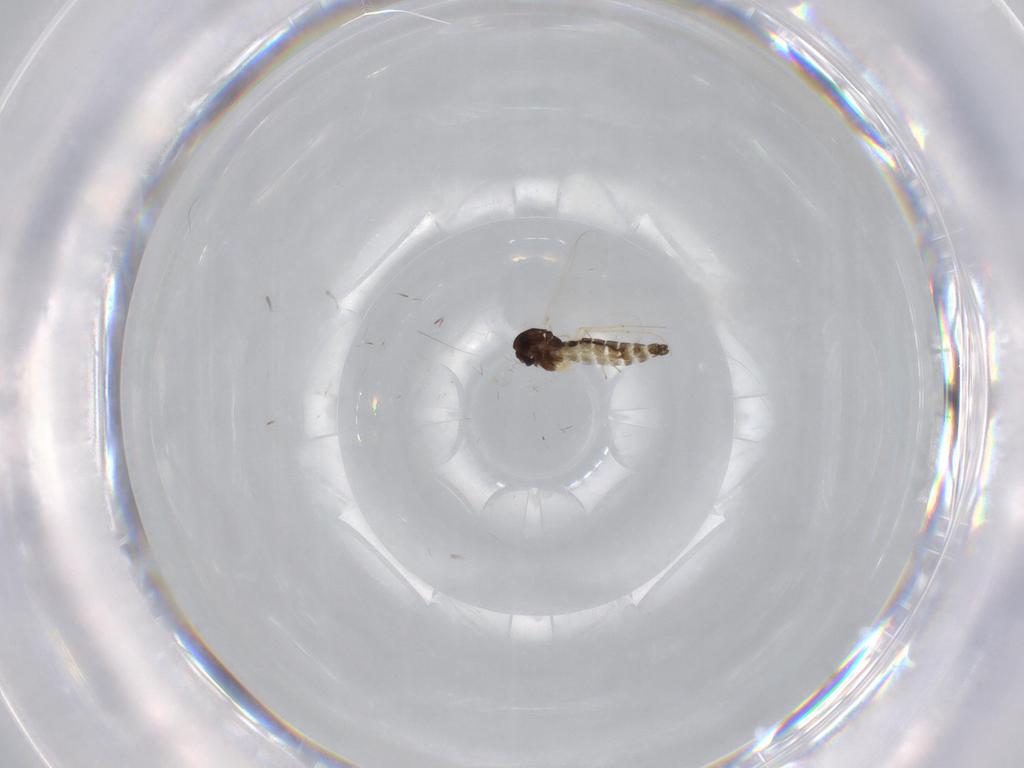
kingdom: Animalia
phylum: Arthropoda
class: Insecta
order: Diptera
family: Chironomidae
